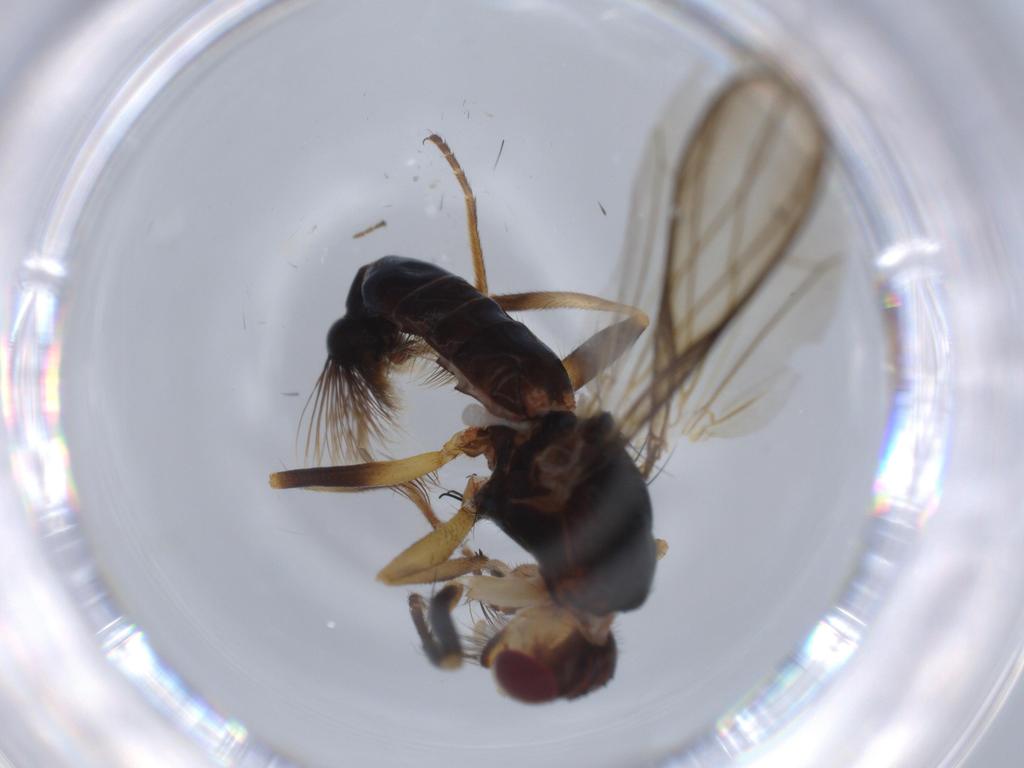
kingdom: Animalia
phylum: Arthropoda
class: Insecta
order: Diptera
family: Piophilidae
